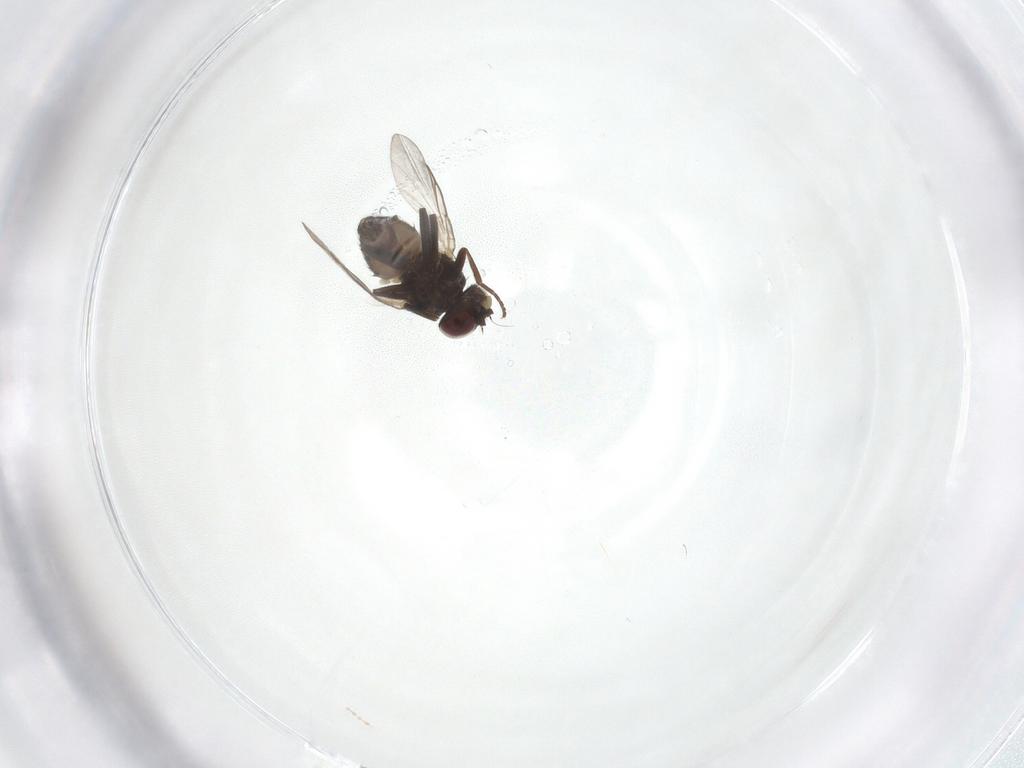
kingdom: Animalia
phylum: Arthropoda
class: Insecta
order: Diptera
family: Cecidomyiidae
